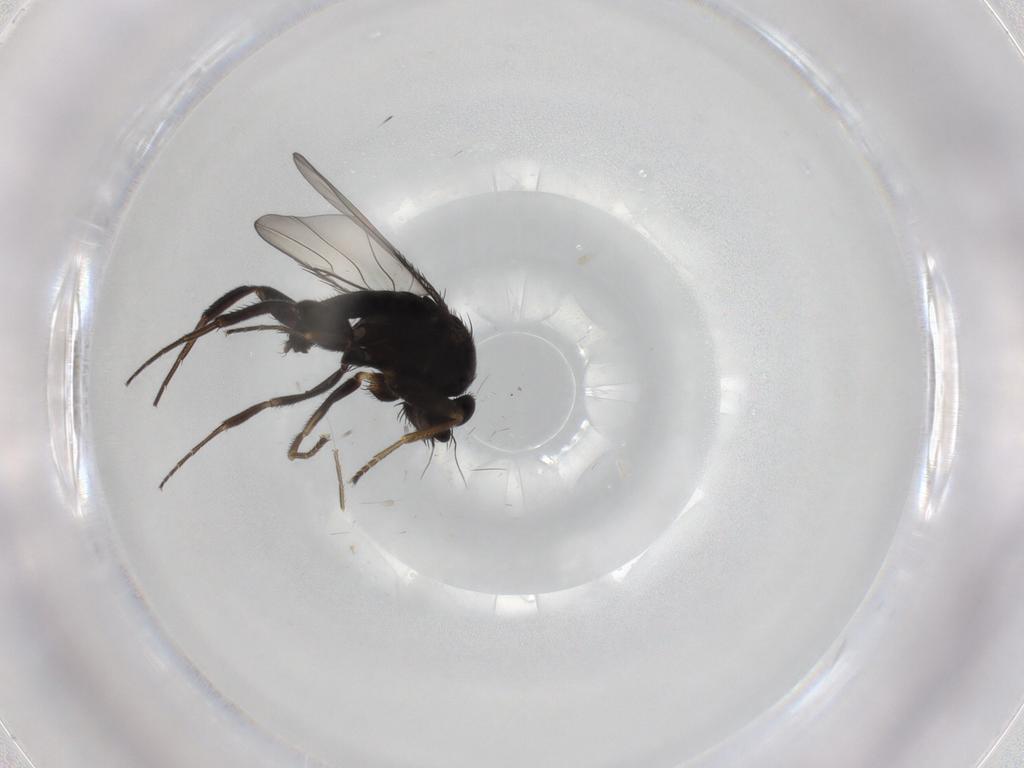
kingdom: Animalia
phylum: Arthropoda
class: Insecta
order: Diptera
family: Phoridae
